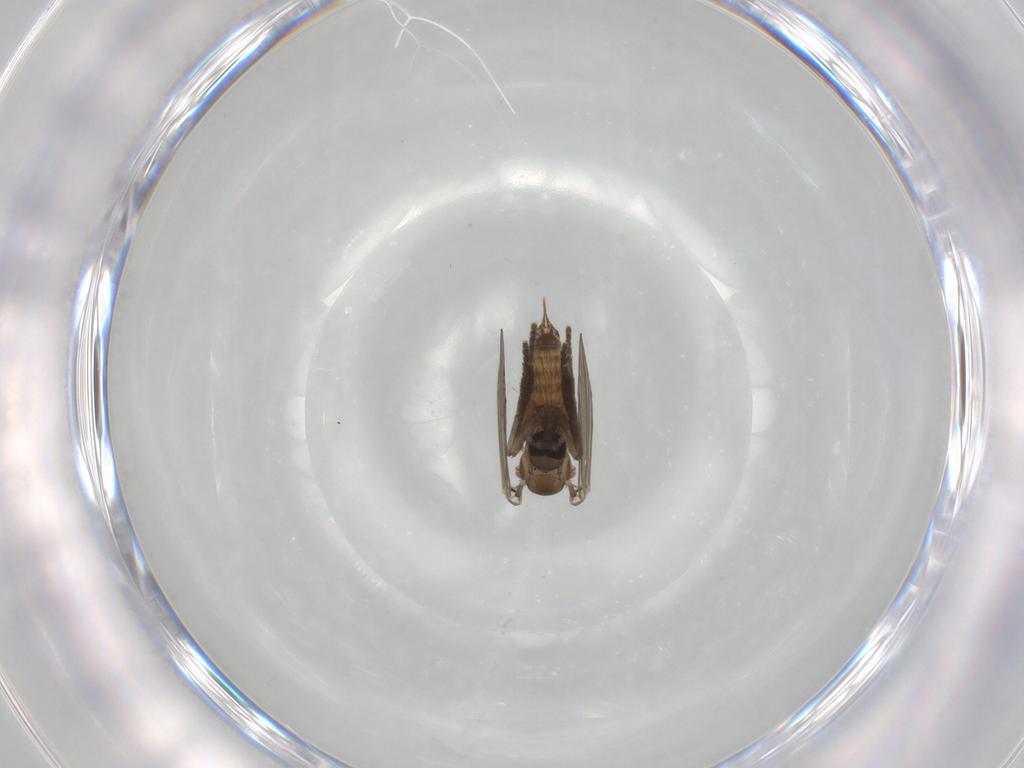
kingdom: Animalia
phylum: Arthropoda
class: Insecta
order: Diptera
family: Psychodidae
